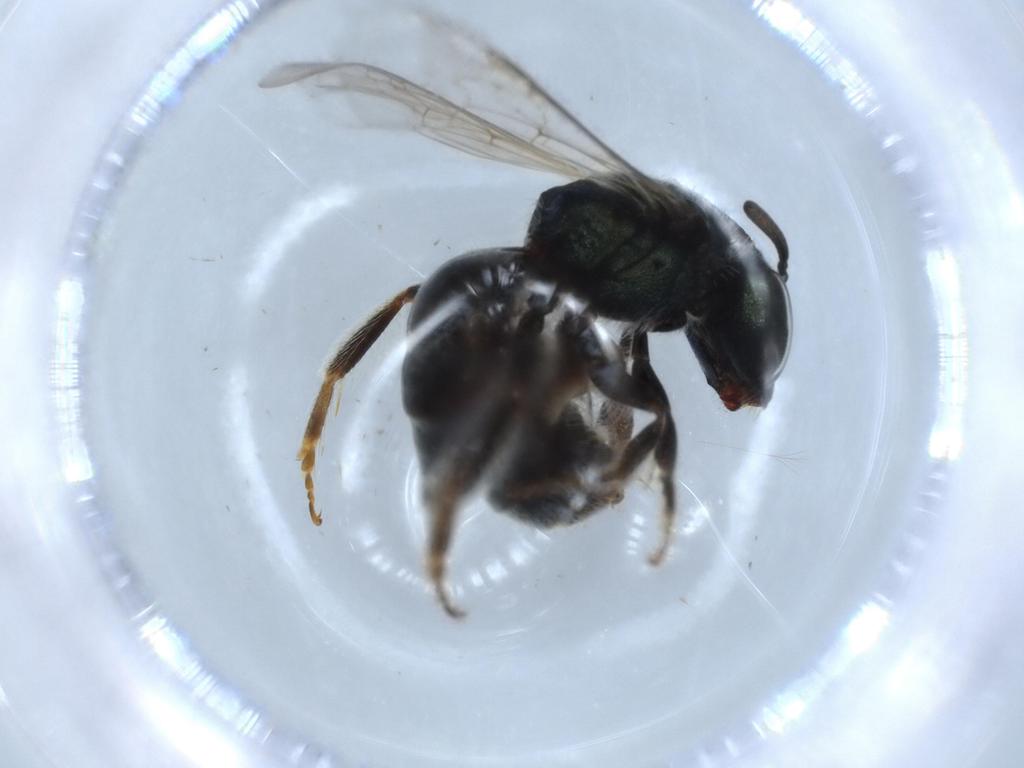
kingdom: Animalia
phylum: Arthropoda
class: Insecta
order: Hymenoptera
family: Halictidae
